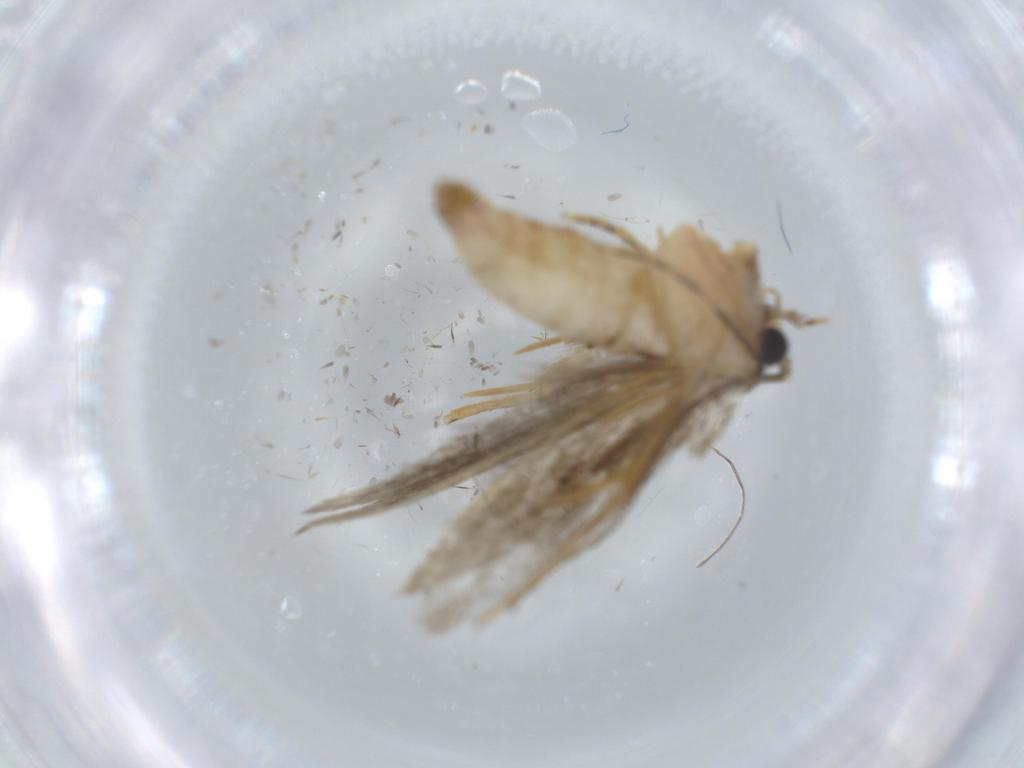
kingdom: Animalia
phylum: Arthropoda
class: Insecta
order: Lepidoptera
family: Tineidae
